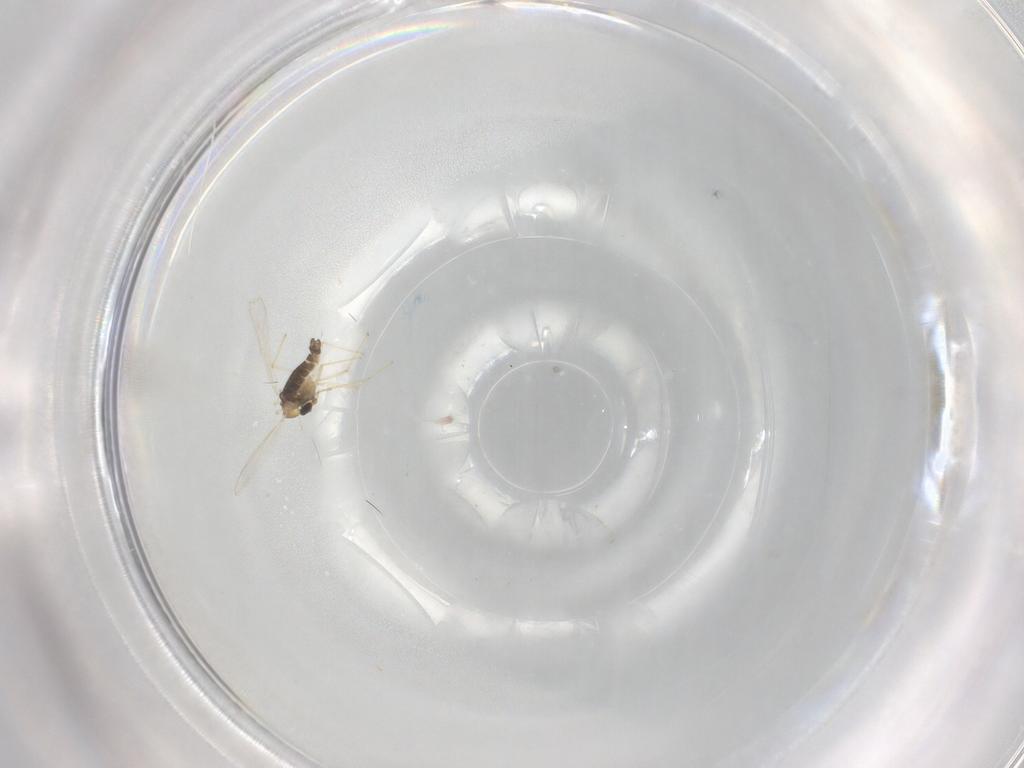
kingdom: Animalia
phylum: Arthropoda
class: Insecta
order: Diptera
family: Chironomidae
